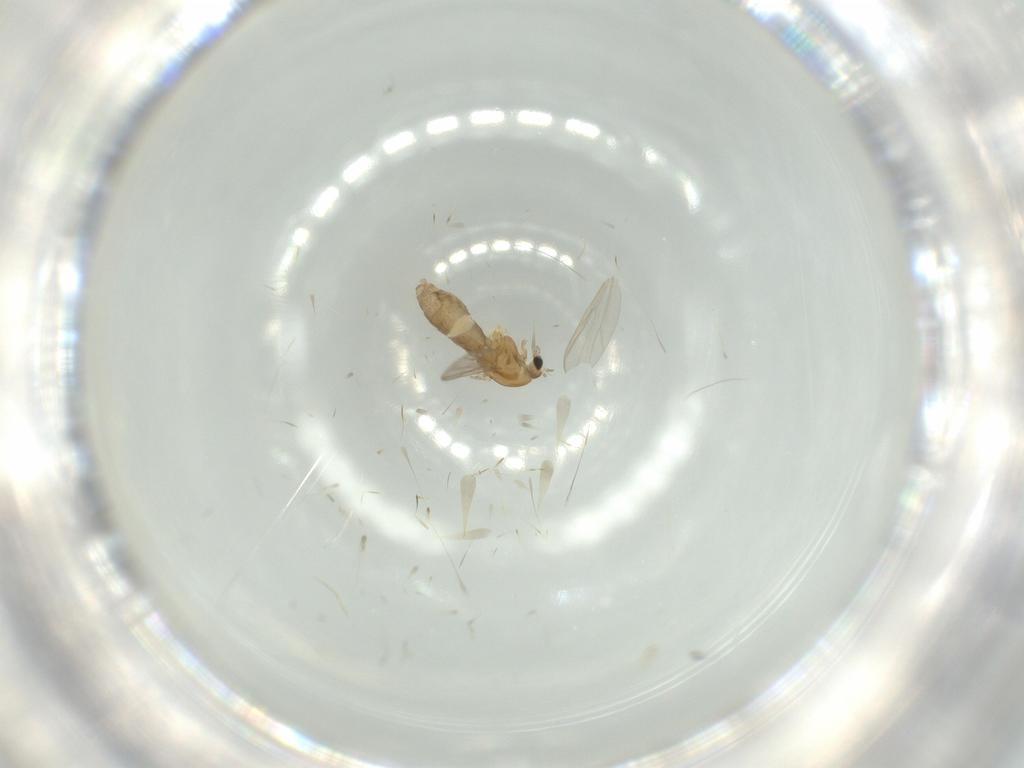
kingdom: Animalia
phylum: Arthropoda
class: Insecta
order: Diptera
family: Chironomidae
